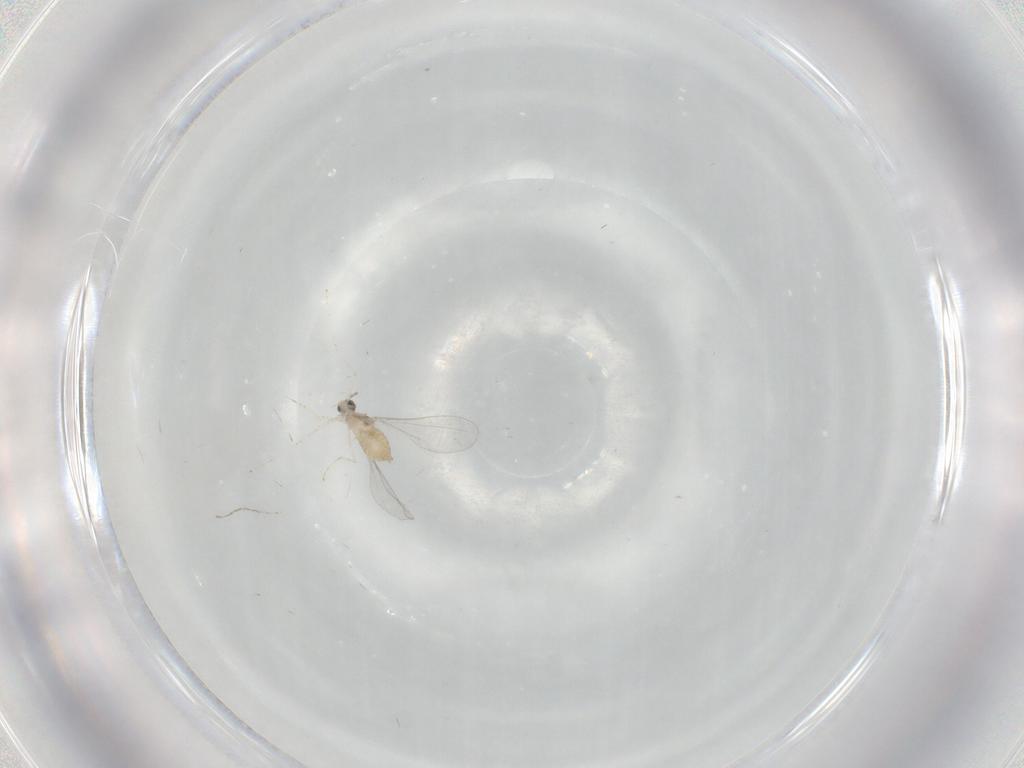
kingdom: Animalia
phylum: Arthropoda
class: Insecta
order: Diptera
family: Cecidomyiidae
